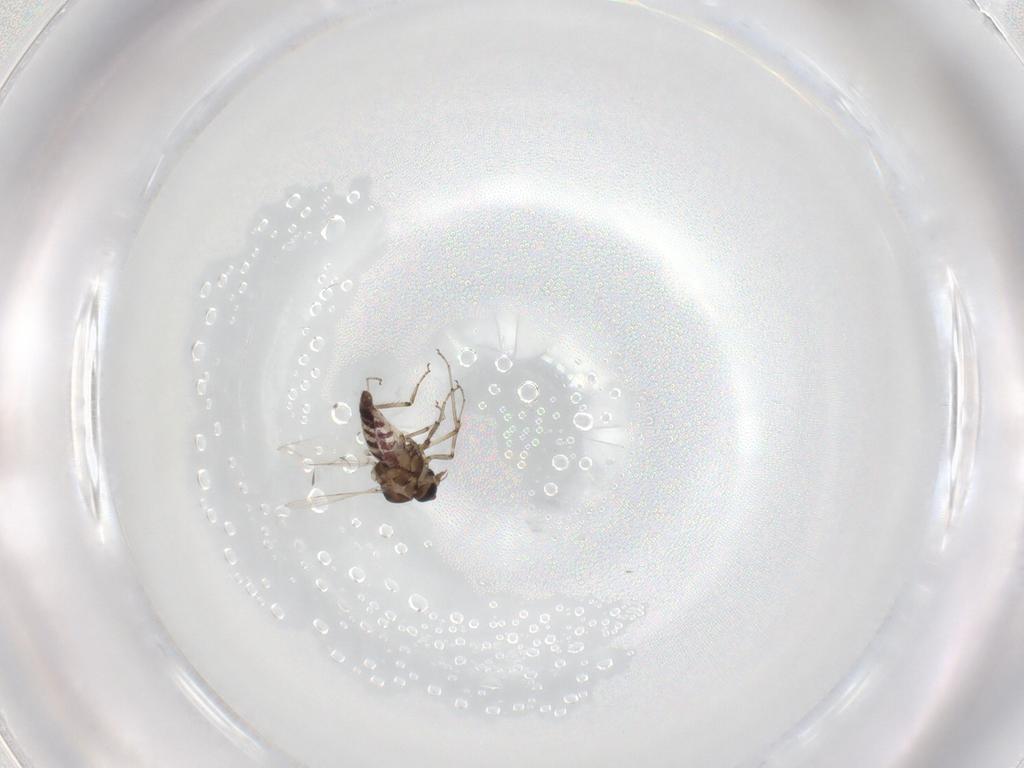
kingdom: Animalia
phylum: Arthropoda
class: Insecta
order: Diptera
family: Ceratopogonidae
